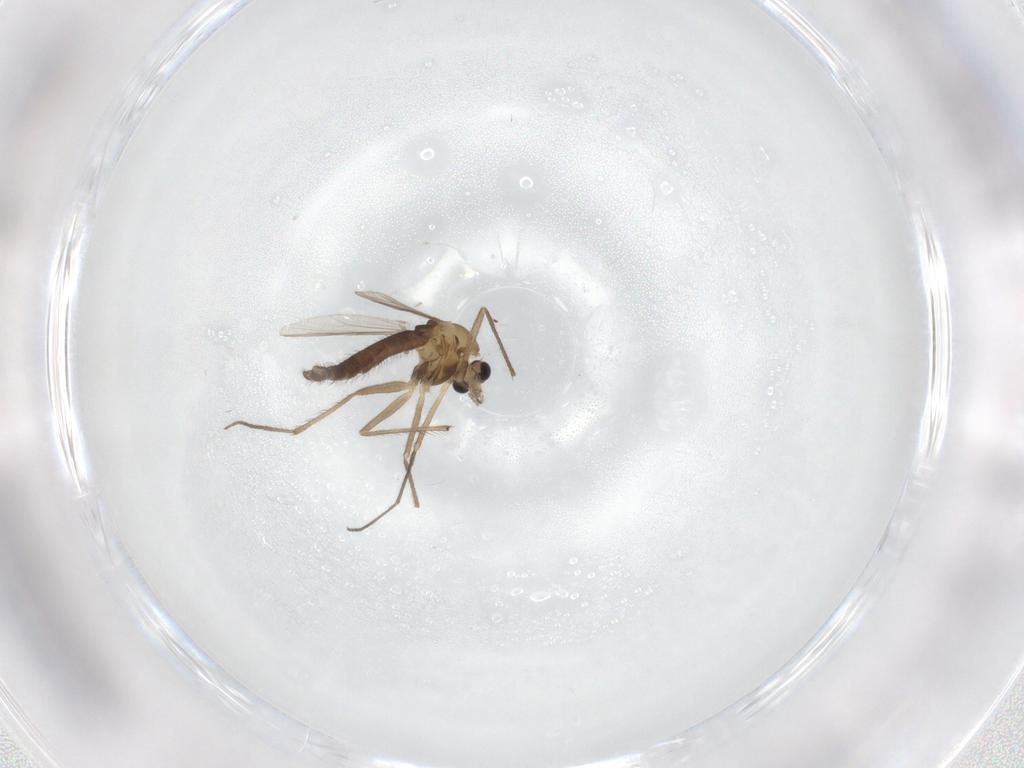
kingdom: Animalia
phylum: Arthropoda
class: Insecta
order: Diptera
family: Chironomidae
